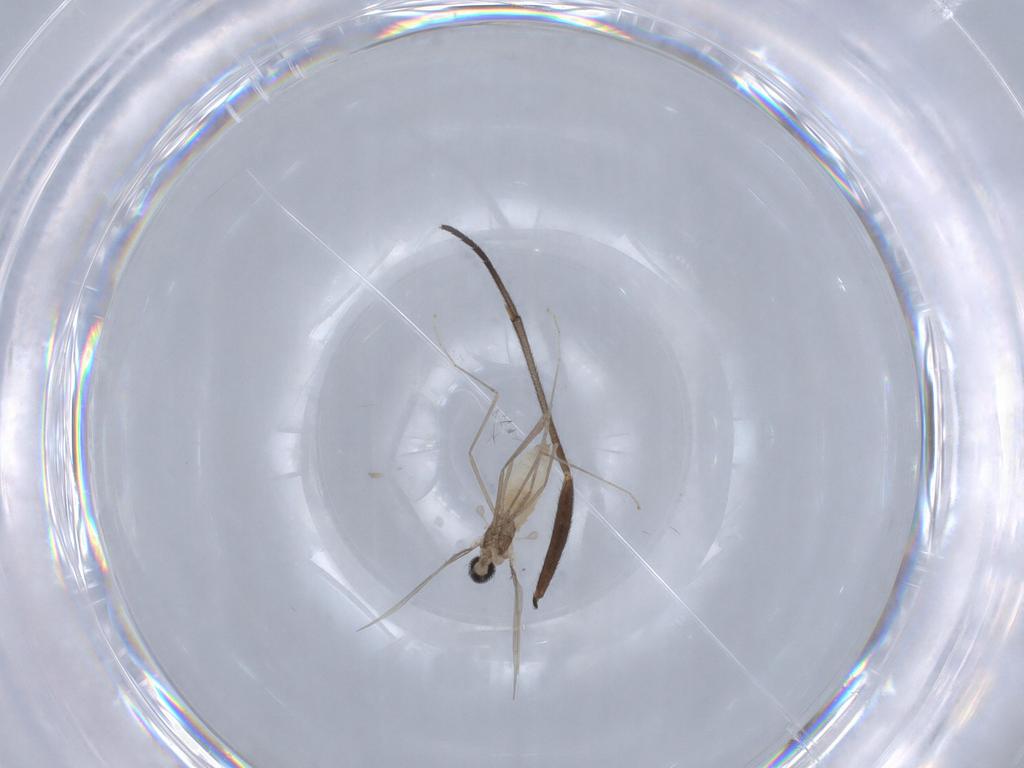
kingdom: Animalia
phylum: Arthropoda
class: Insecta
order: Diptera
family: Cecidomyiidae
